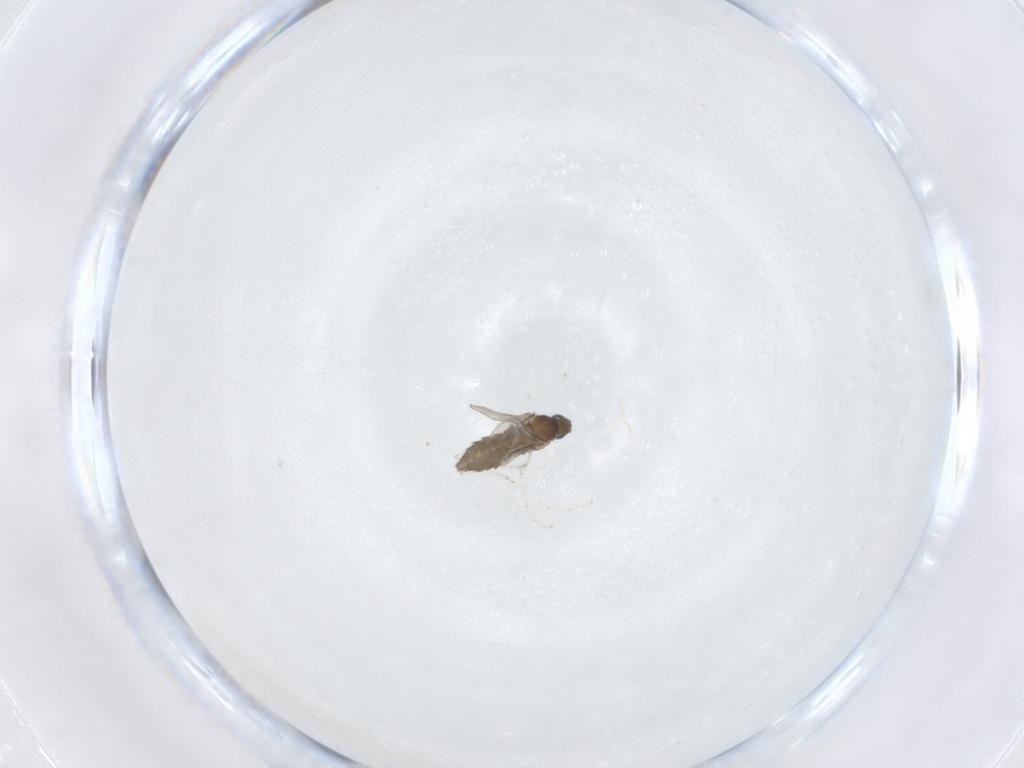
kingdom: Animalia
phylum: Arthropoda
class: Insecta
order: Diptera
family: Cecidomyiidae
